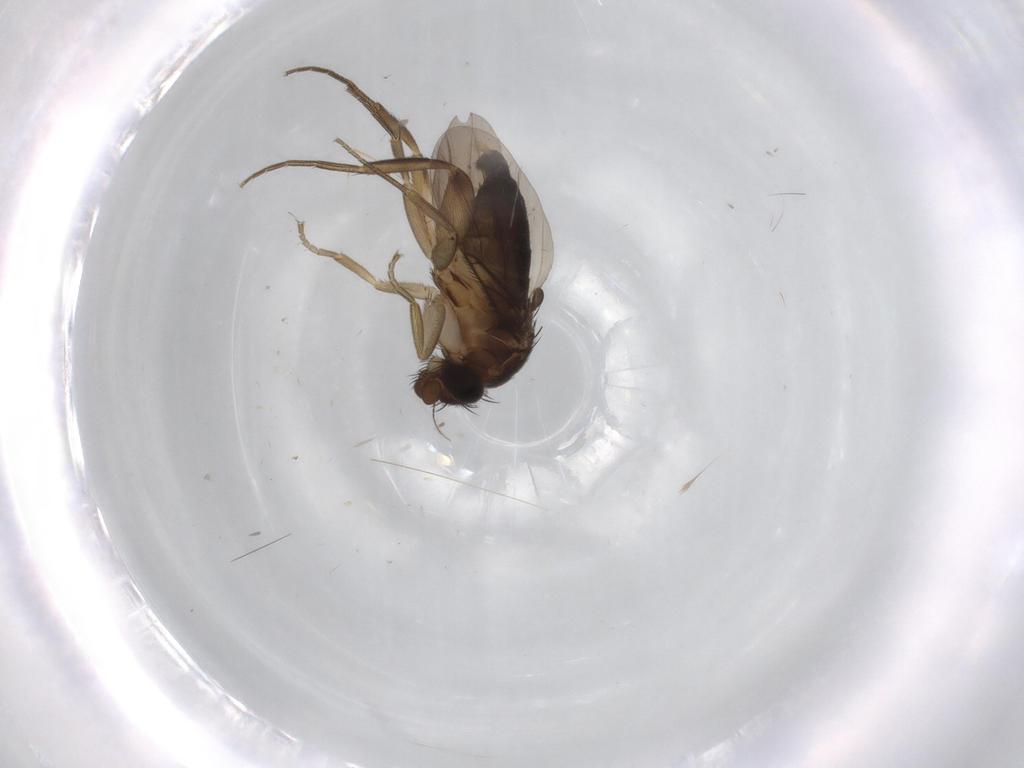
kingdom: Animalia
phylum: Arthropoda
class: Insecta
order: Diptera
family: Phoridae
